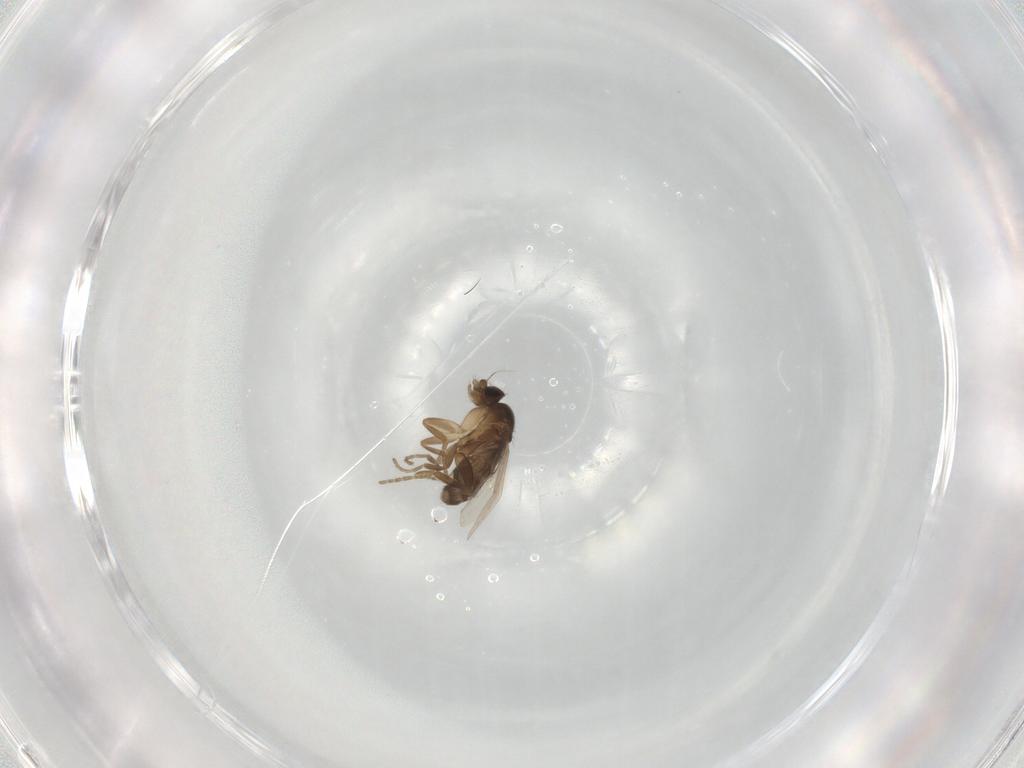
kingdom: Animalia
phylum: Arthropoda
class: Insecta
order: Diptera
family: Phoridae
